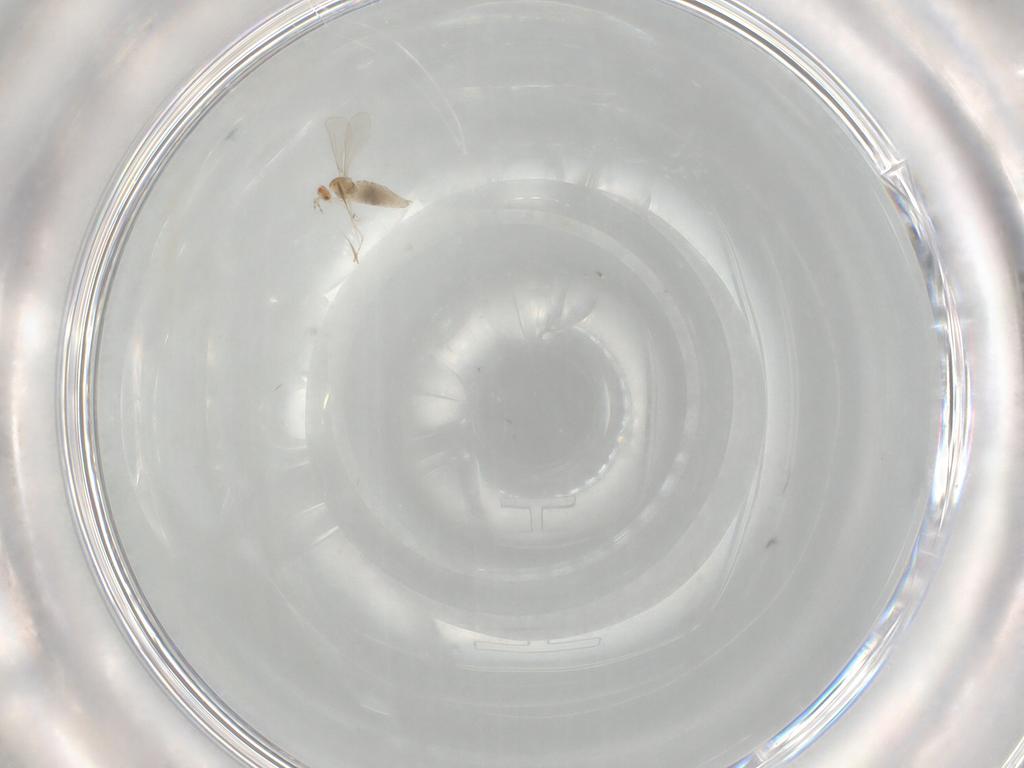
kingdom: Animalia
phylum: Arthropoda
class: Insecta
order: Diptera
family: Cecidomyiidae
